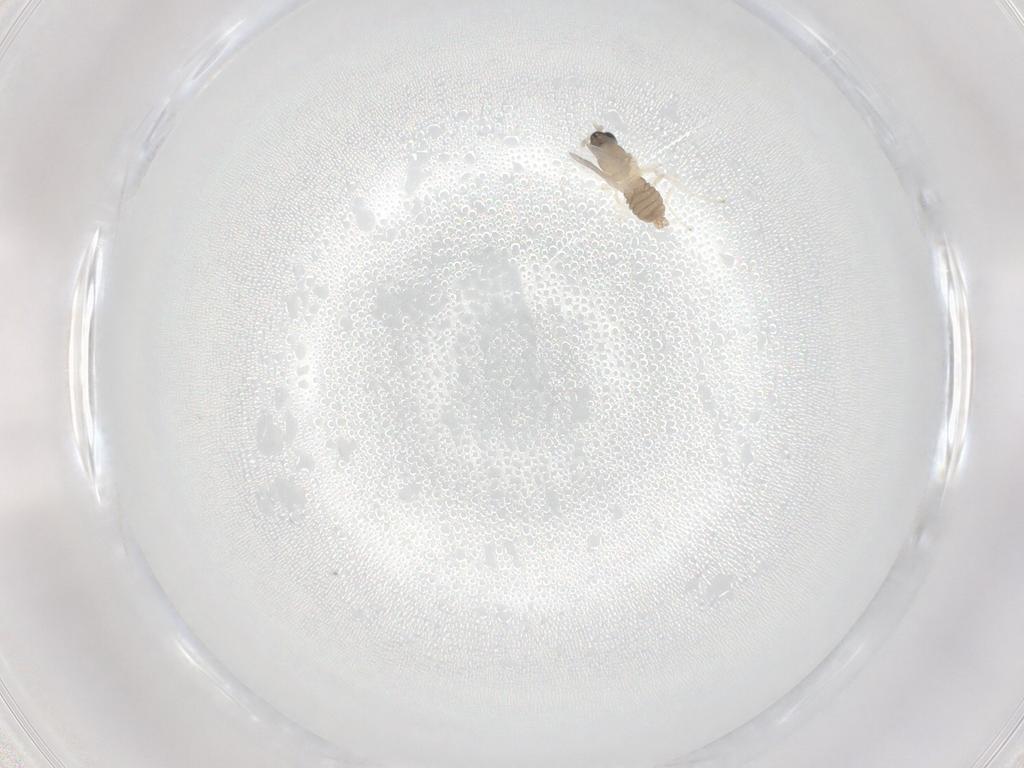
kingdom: Animalia
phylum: Arthropoda
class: Insecta
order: Diptera
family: Cecidomyiidae
